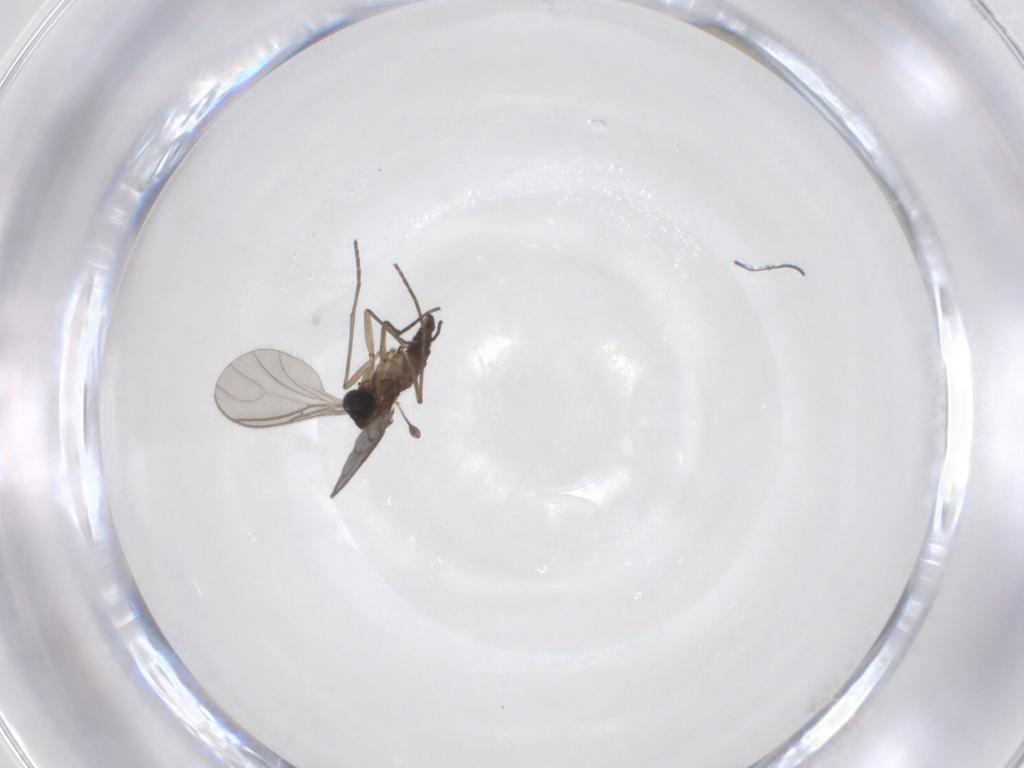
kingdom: Animalia
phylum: Arthropoda
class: Insecta
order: Diptera
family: Sciaridae
